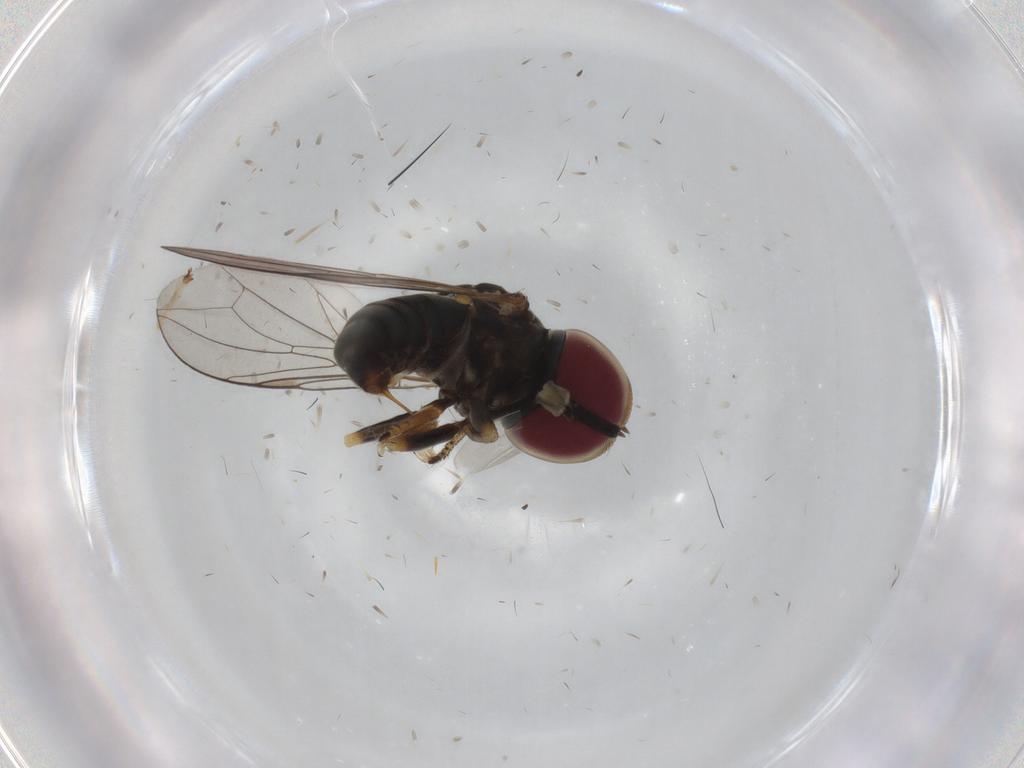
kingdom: Animalia
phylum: Arthropoda
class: Insecta
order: Diptera
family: Pipunculidae
